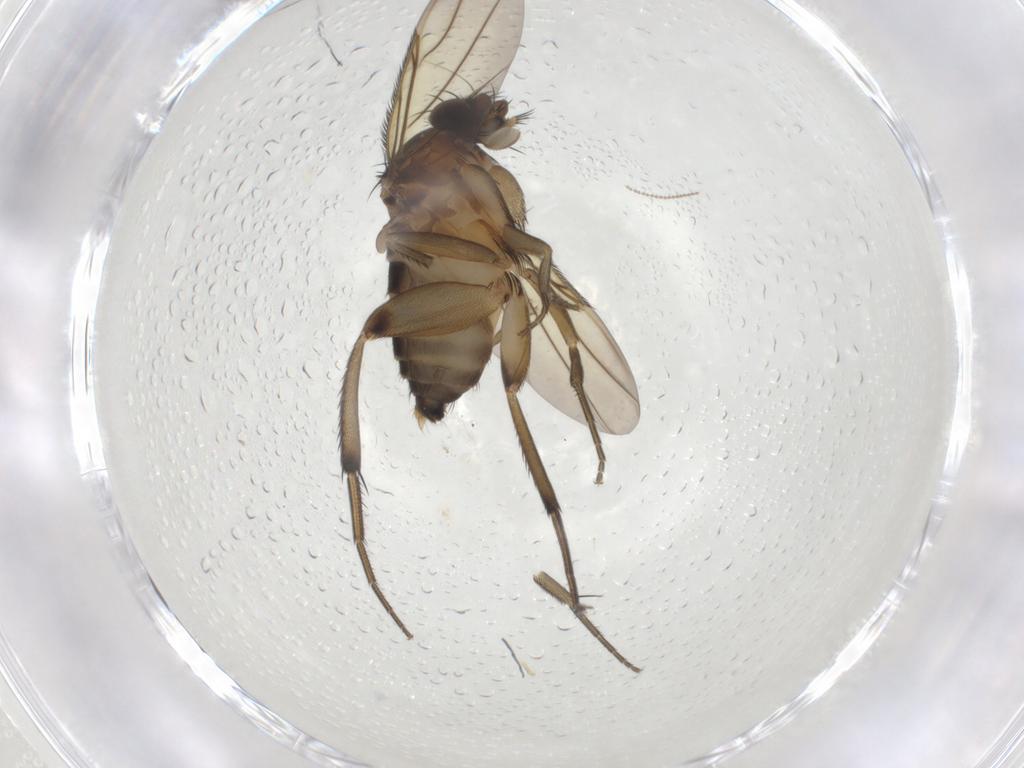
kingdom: Animalia
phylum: Arthropoda
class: Insecta
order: Diptera
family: Phoridae
